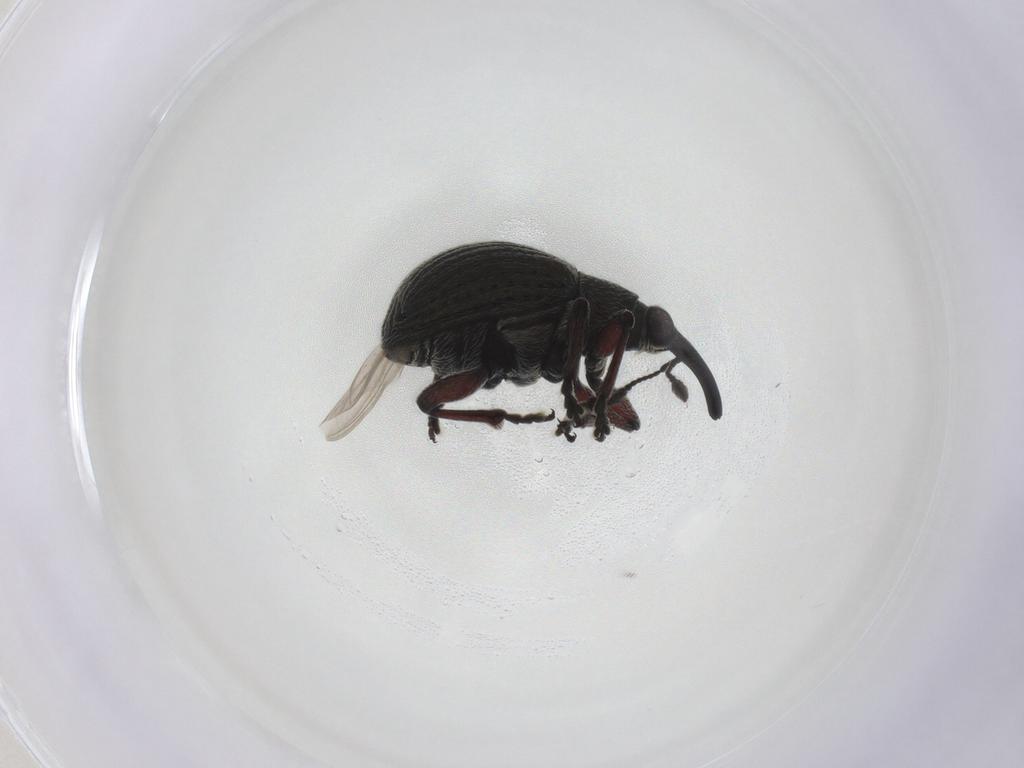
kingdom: Animalia
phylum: Arthropoda
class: Insecta
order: Coleoptera
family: Brentidae
